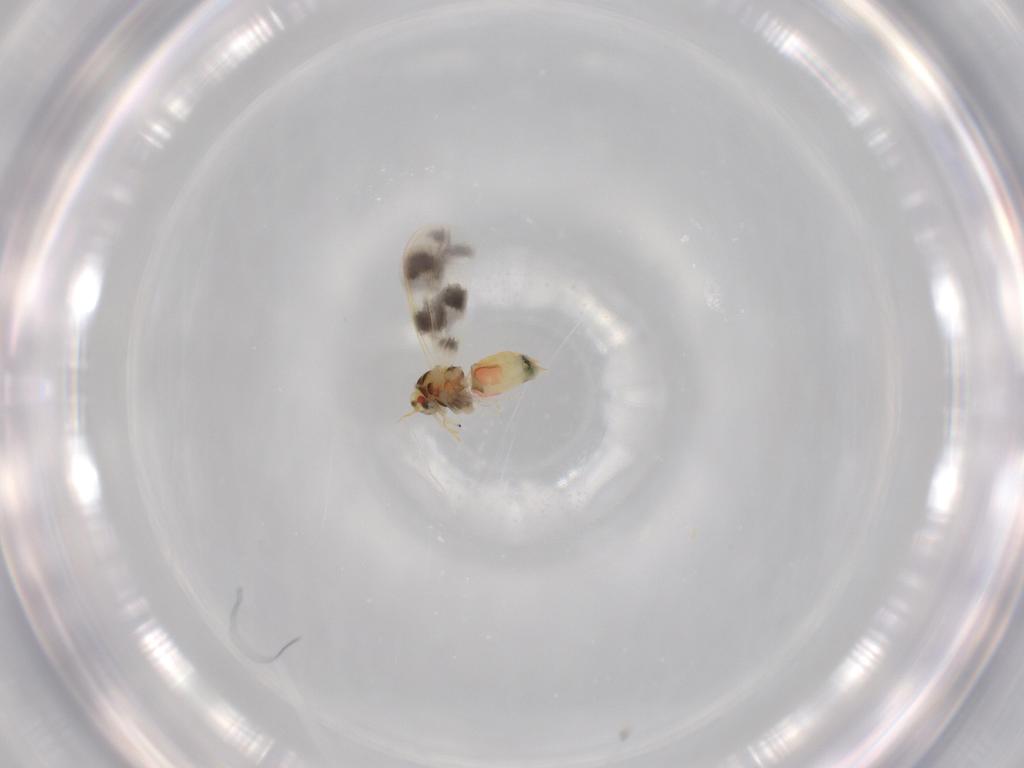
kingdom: Animalia
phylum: Arthropoda
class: Insecta
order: Hemiptera
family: Aleyrodidae
